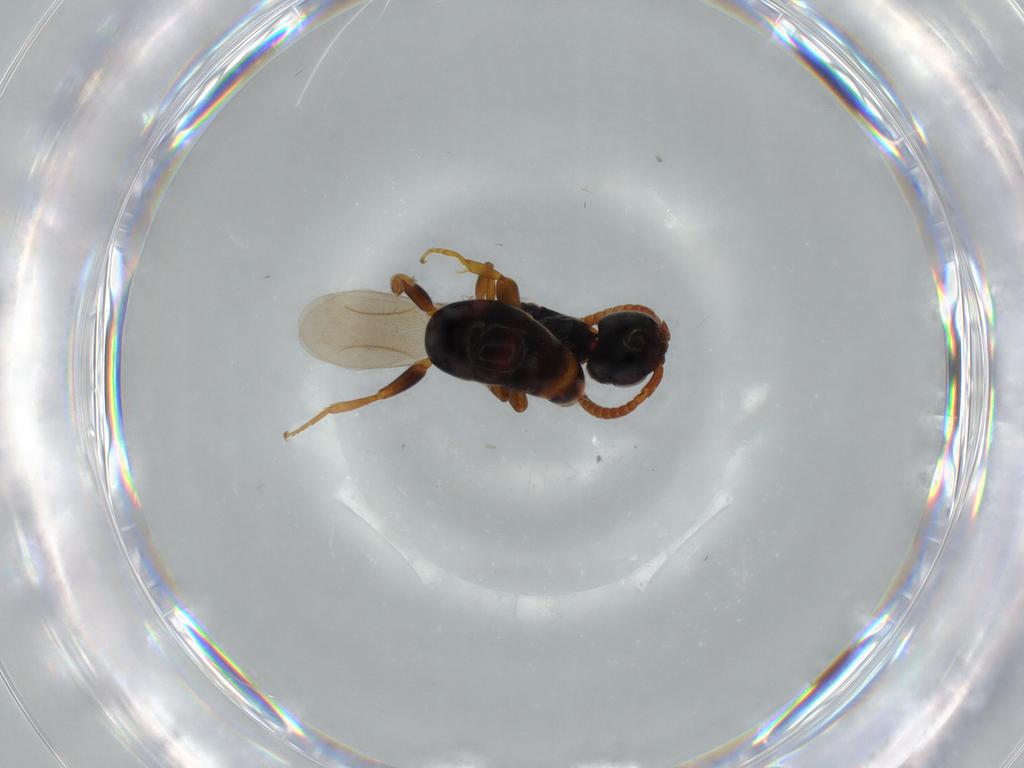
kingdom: Animalia
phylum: Arthropoda
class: Insecta
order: Hymenoptera
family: Bethylidae
